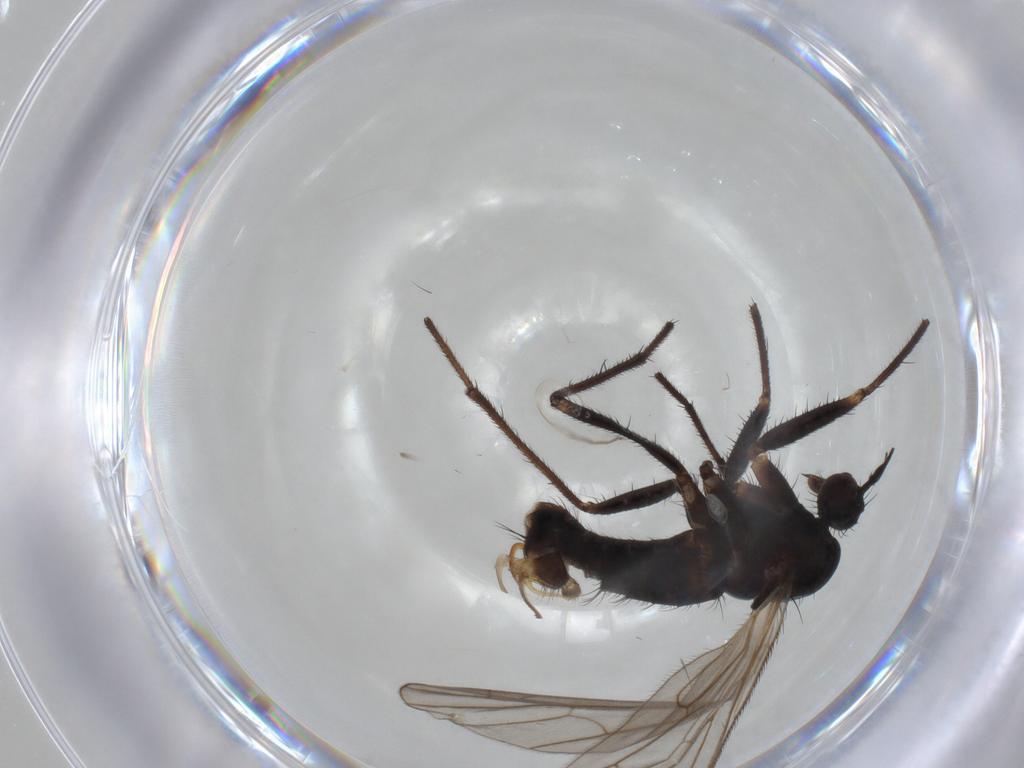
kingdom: Animalia
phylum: Arthropoda
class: Insecta
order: Diptera
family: Empididae
